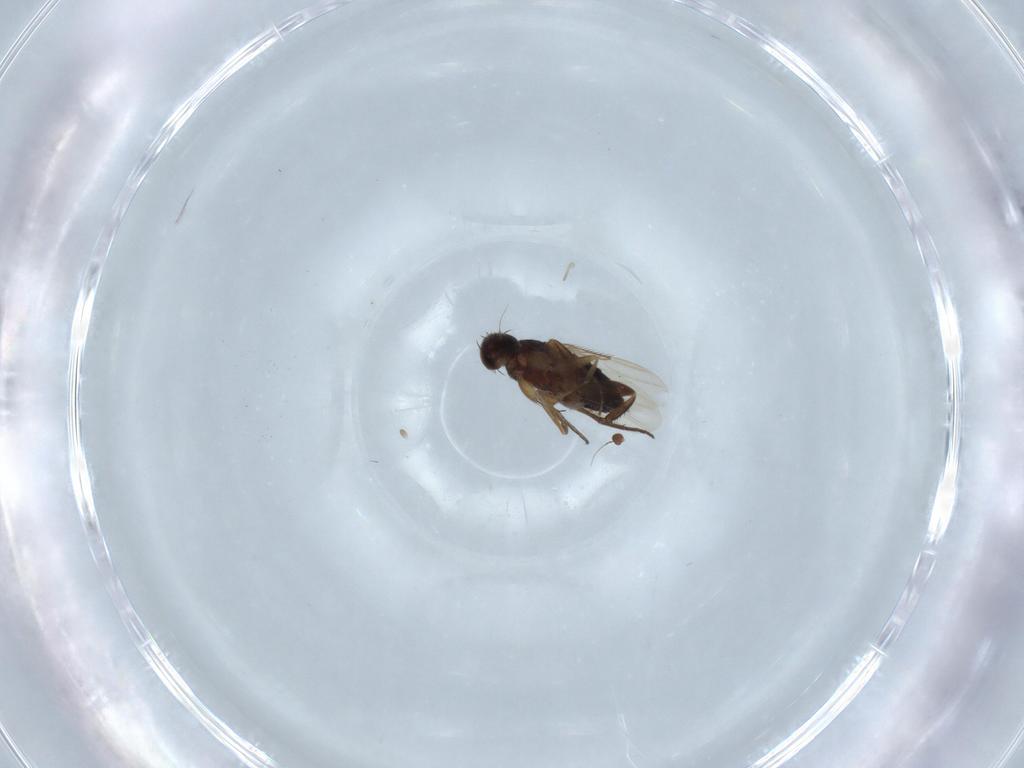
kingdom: Animalia
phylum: Arthropoda
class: Insecta
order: Diptera
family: Phoridae
